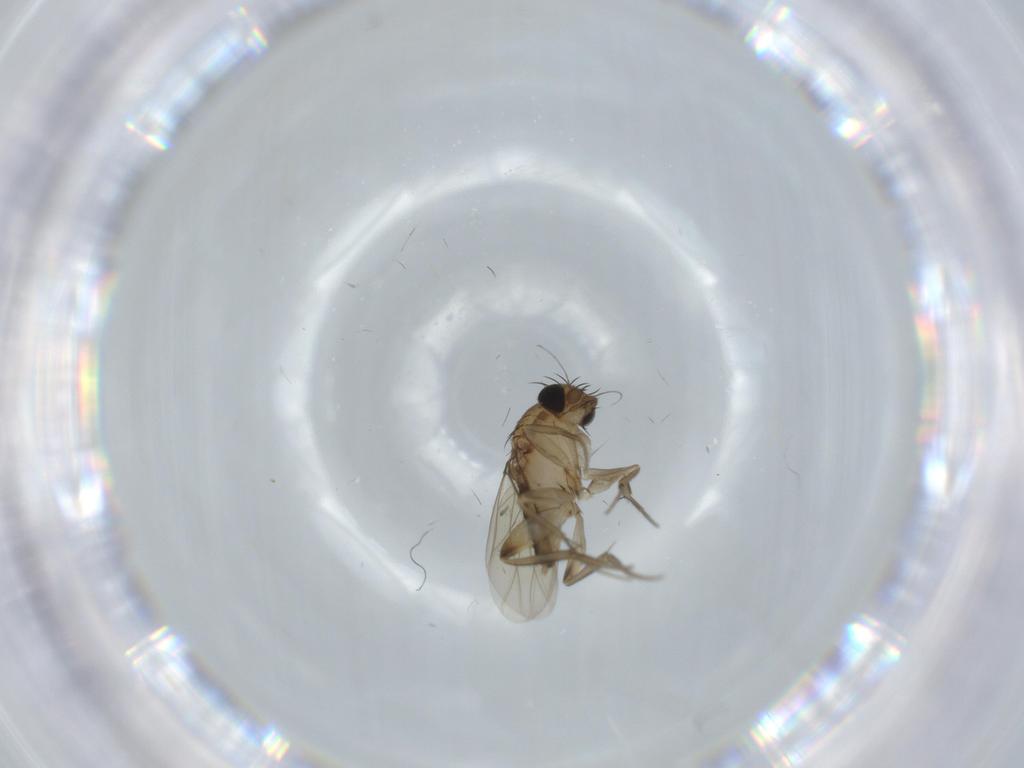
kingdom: Animalia
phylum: Arthropoda
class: Insecta
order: Diptera
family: Phoridae
